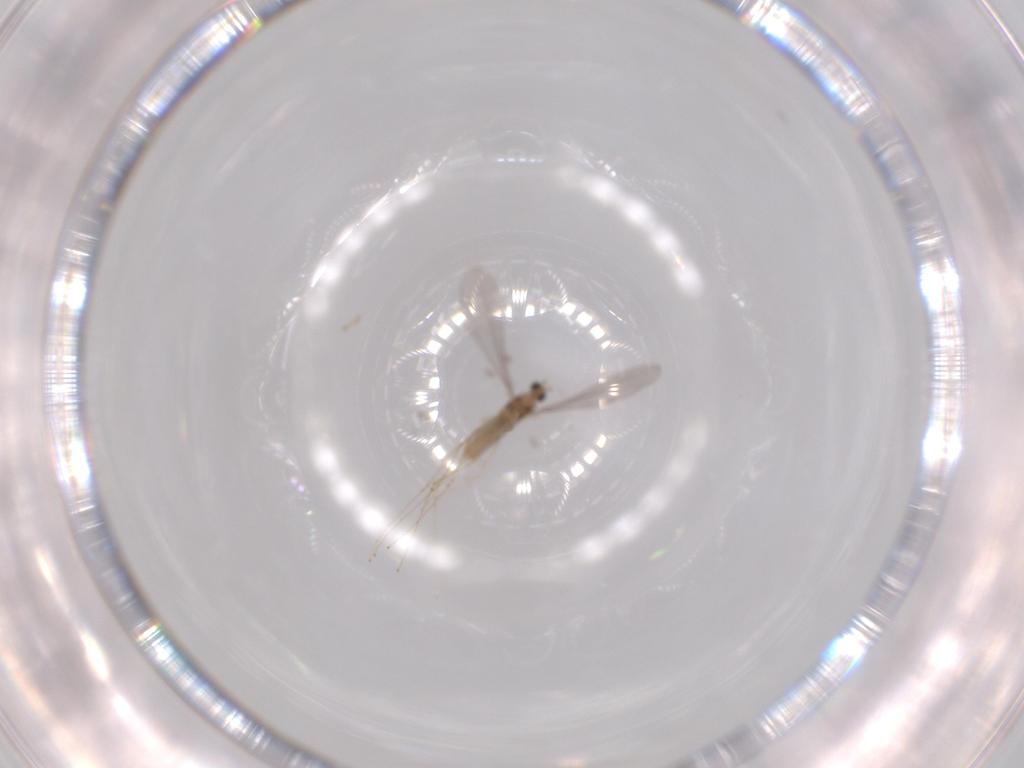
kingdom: Animalia
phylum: Arthropoda
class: Insecta
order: Diptera
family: Cecidomyiidae
